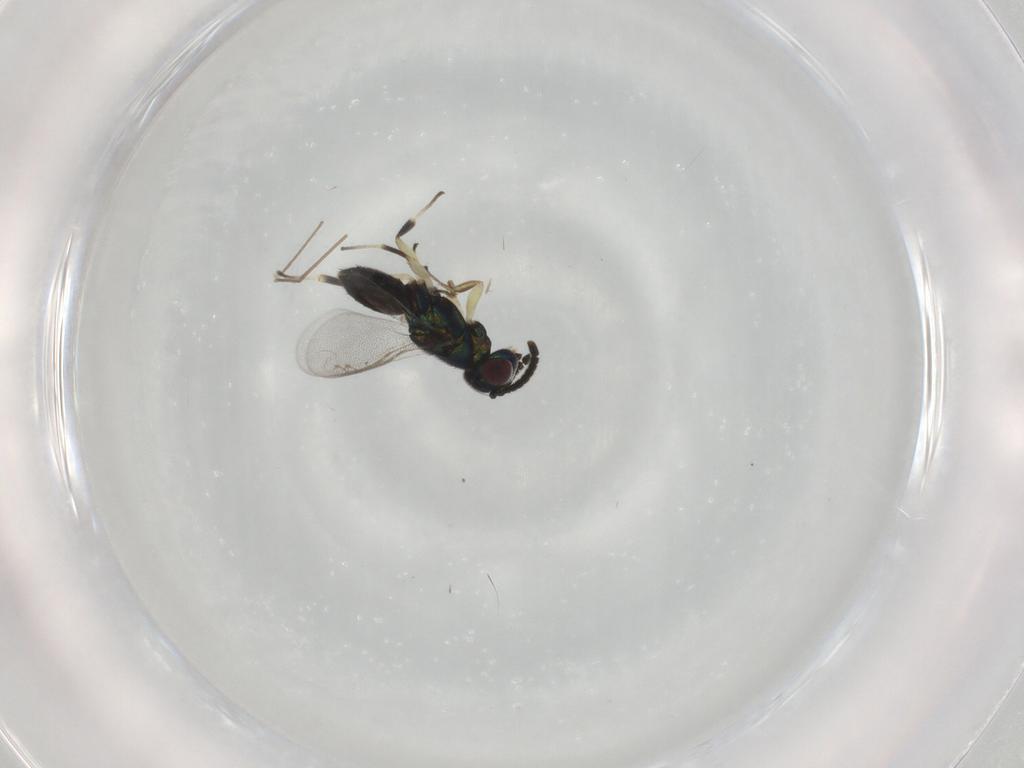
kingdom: Animalia
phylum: Arthropoda
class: Insecta
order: Hymenoptera
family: Eupelmidae
